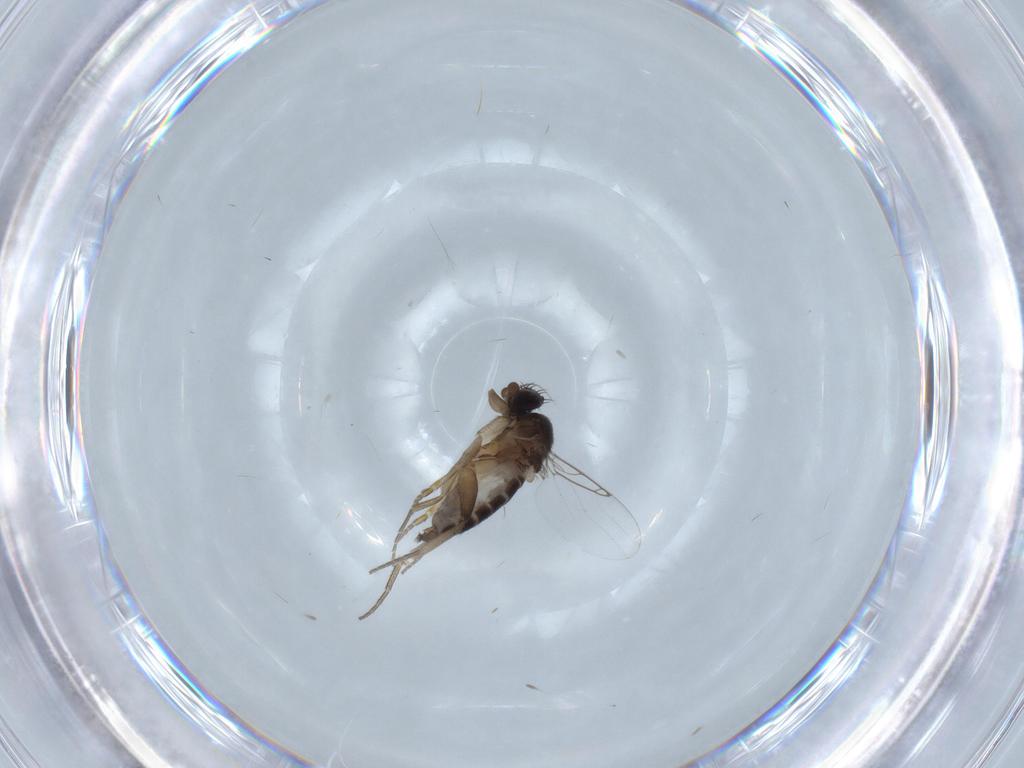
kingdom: Animalia
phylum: Arthropoda
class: Insecta
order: Diptera
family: Phoridae
